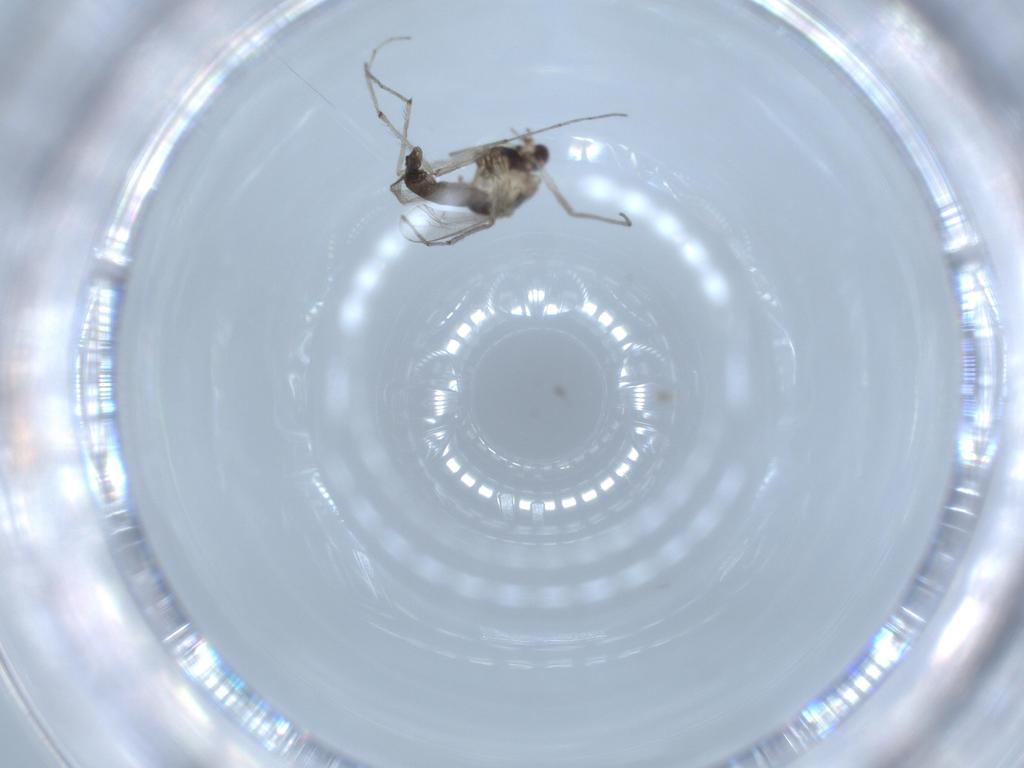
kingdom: Animalia
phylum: Arthropoda
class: Insecta
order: Diptera
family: Chironomidae
